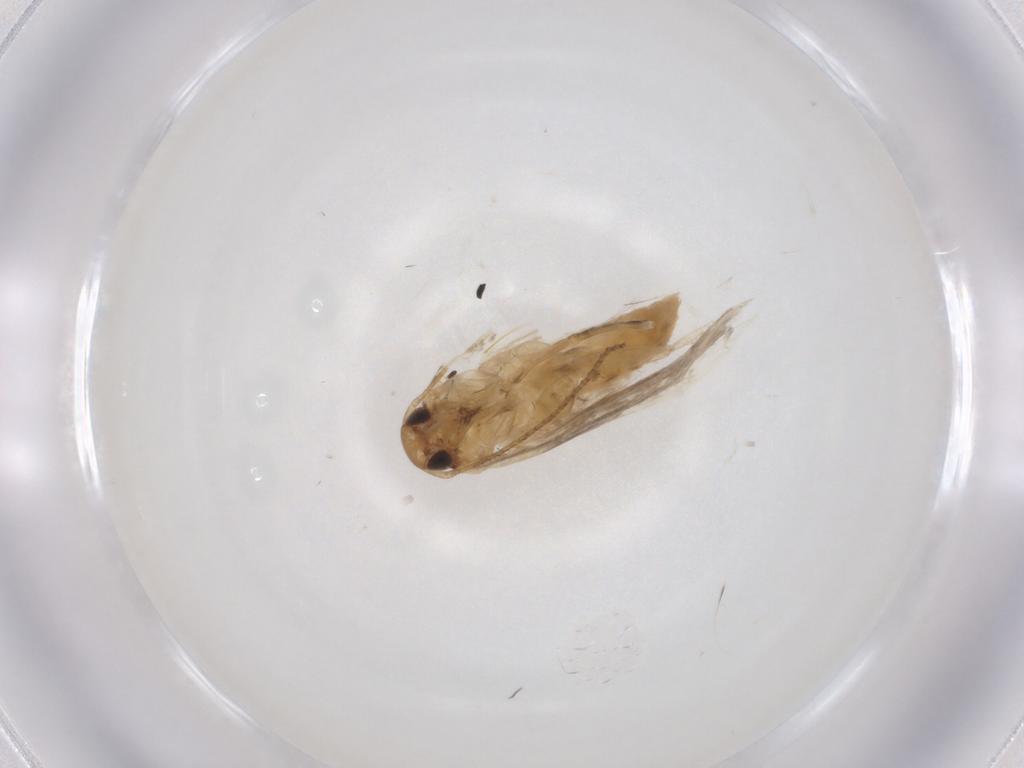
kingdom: Animalia
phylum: Arthropoda
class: Insecta
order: Lepidoptera
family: Gelechiidae
